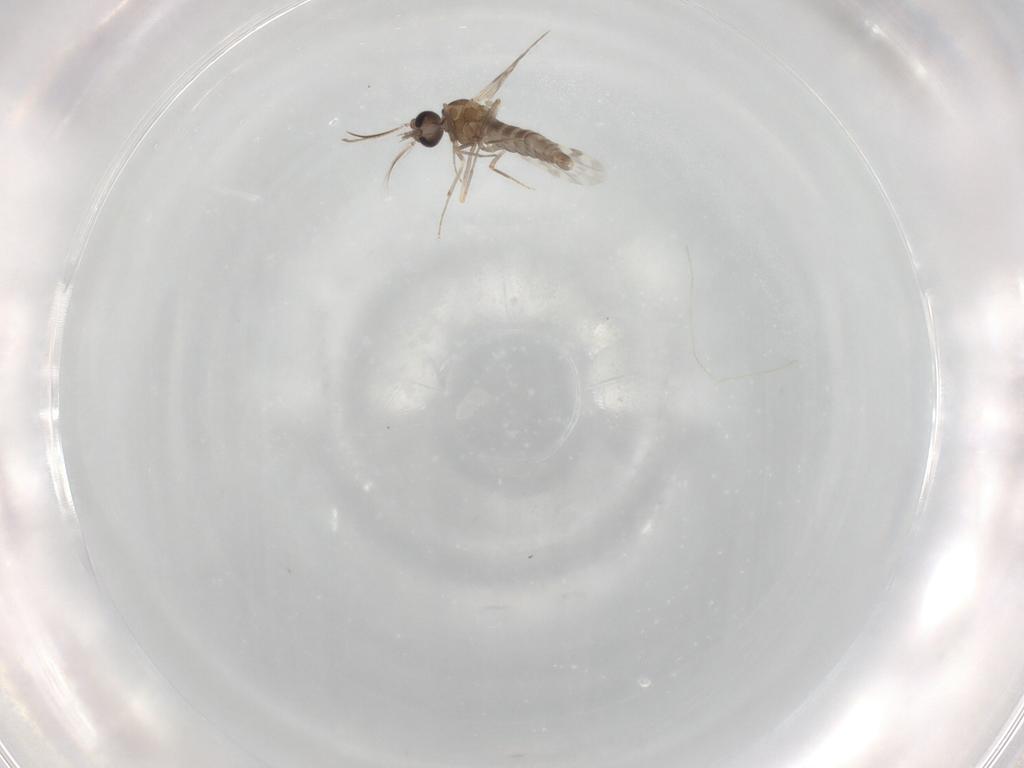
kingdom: Animalia
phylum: Arthropoda
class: Insecta
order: Diptera
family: Ceratopogonidae
